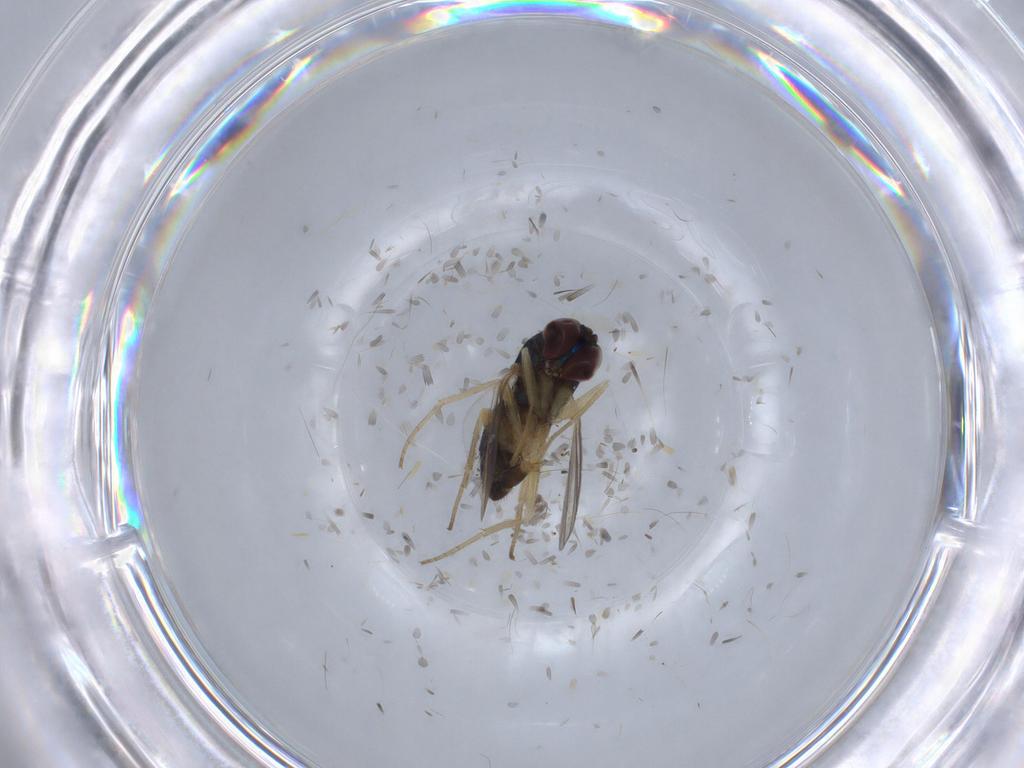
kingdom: Animalia
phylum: Arthropoda
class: Insecta
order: Diptera
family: Dolichopodidae
